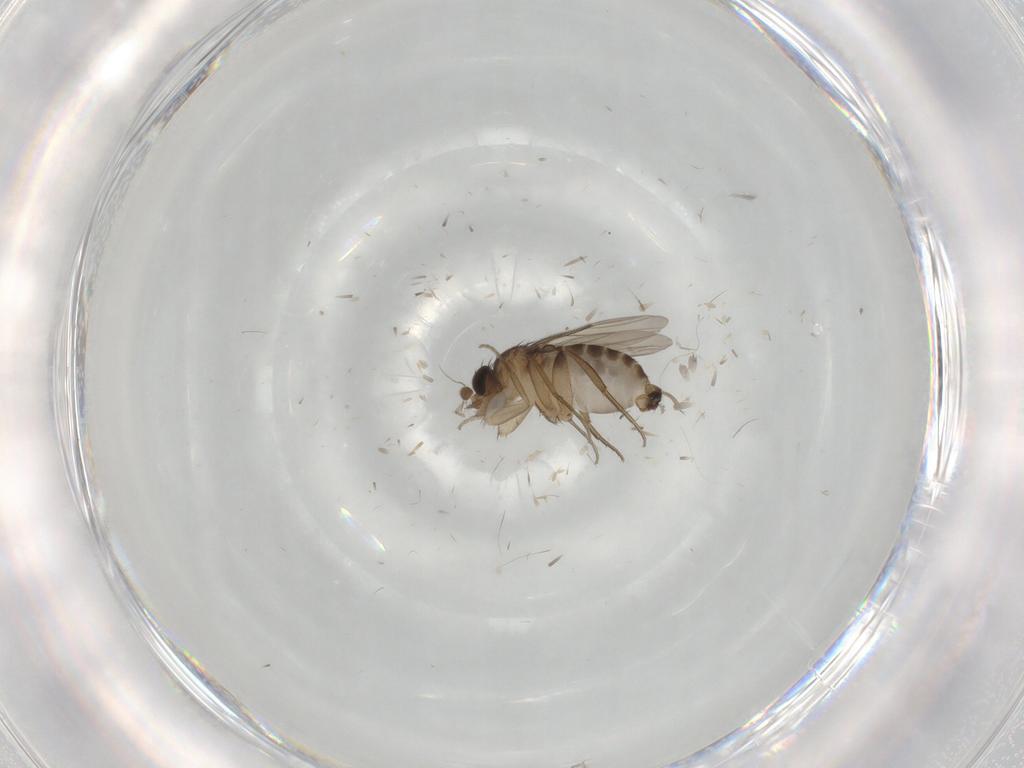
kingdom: Animalia
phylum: Arthropoda
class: Insecta
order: Diptera
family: Phoridae
